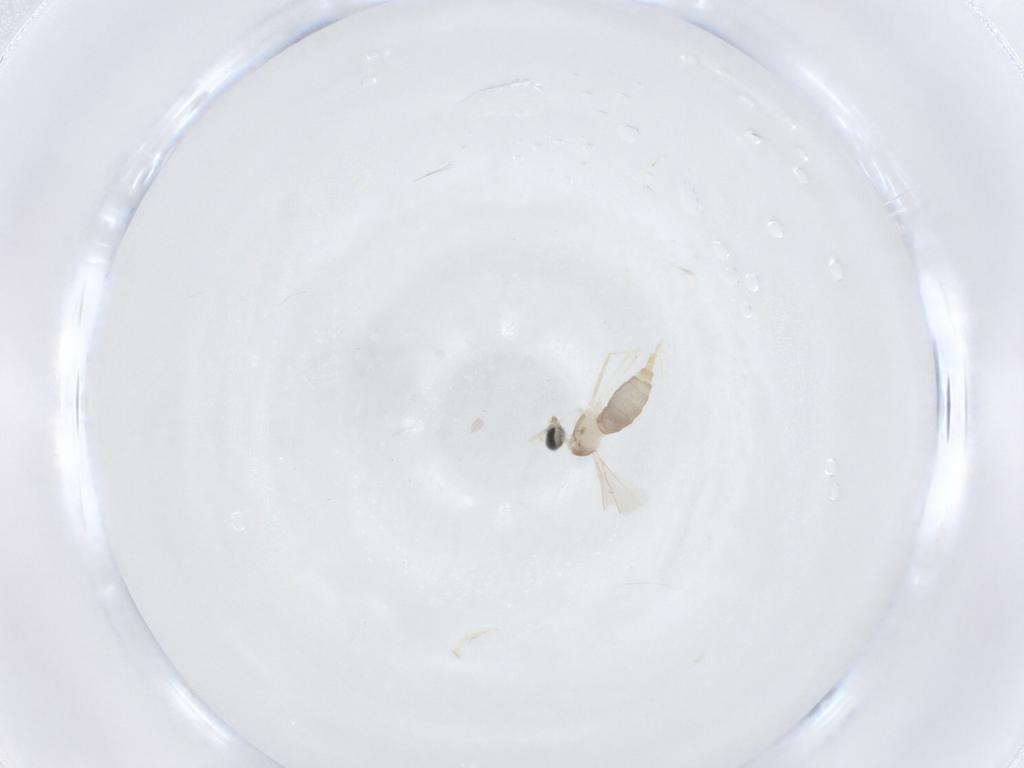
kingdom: Animalia
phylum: Arthropoda
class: Insecta
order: Diptera
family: Cecidomyiidae
